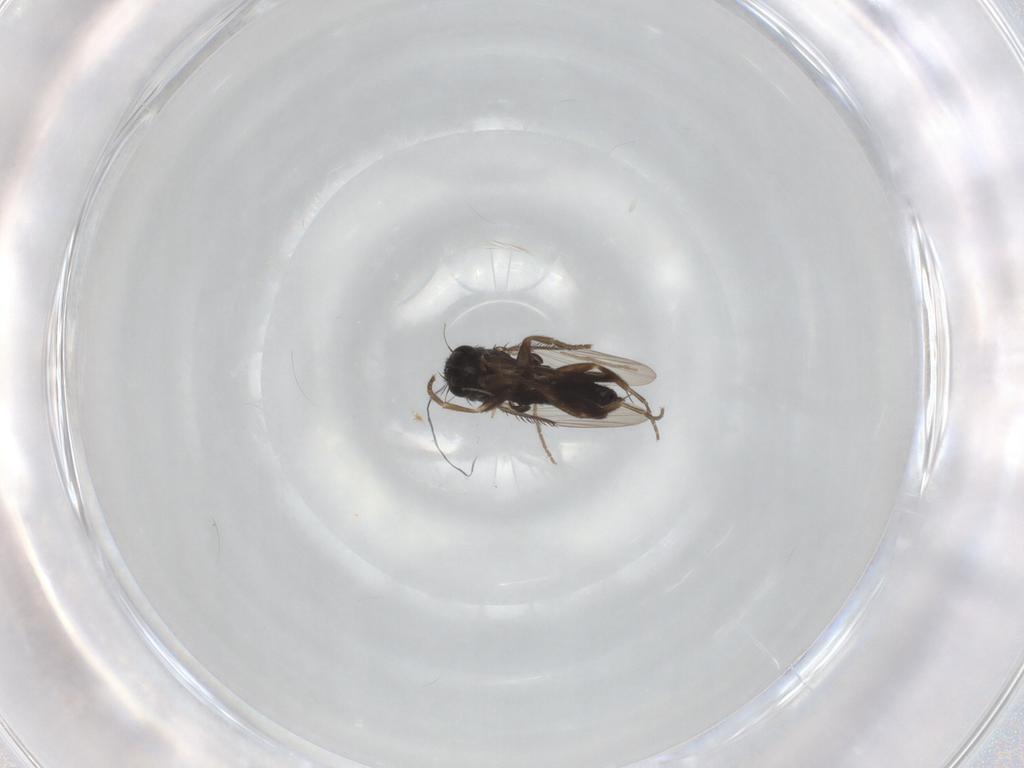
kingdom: Animalia
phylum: Arthropoda
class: Insecta
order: Diptera
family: Phoridae
